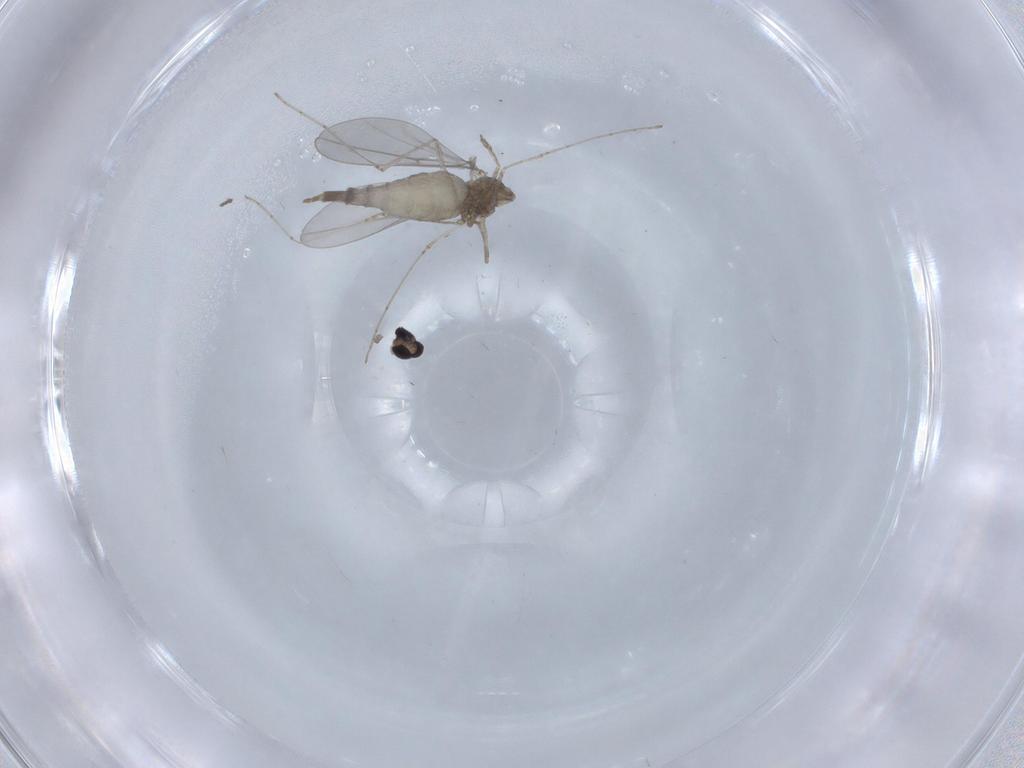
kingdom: Animalia
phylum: Arthropoda
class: Insecta
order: Diptera
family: Cecidomyiidae
